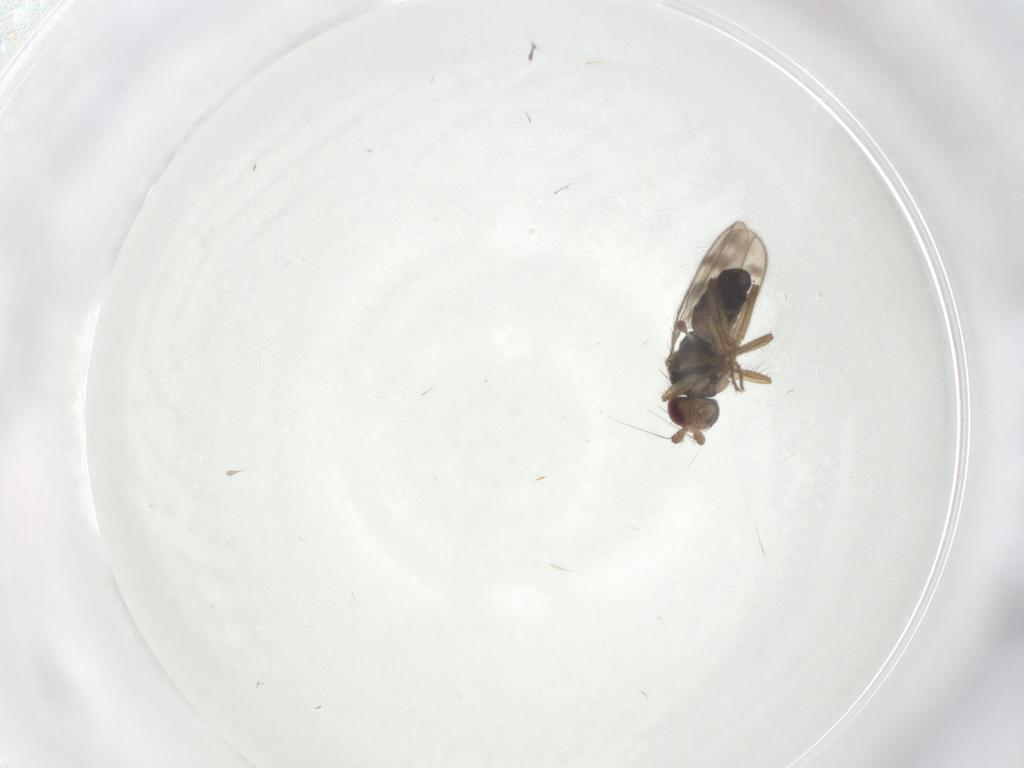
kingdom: Animalia
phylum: Arthropoda
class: Insecta
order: Diptera
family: Sphaeroceridae
